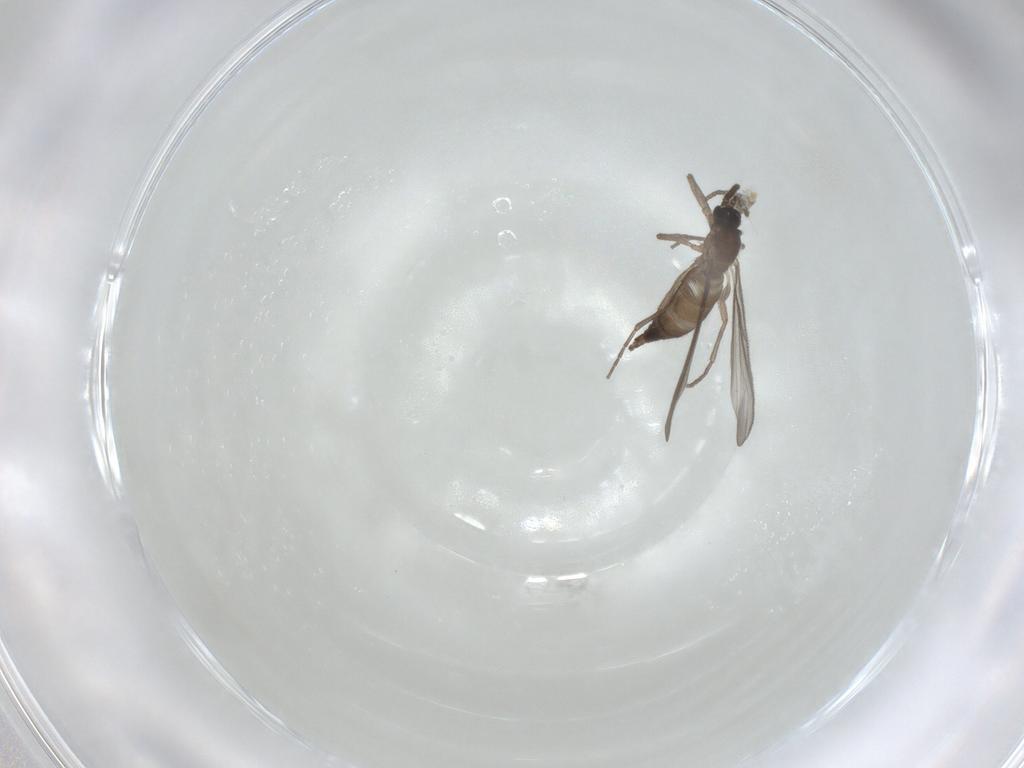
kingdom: Animalia
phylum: Arthropoda
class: Insecta
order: Diptera
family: Sciaridae
